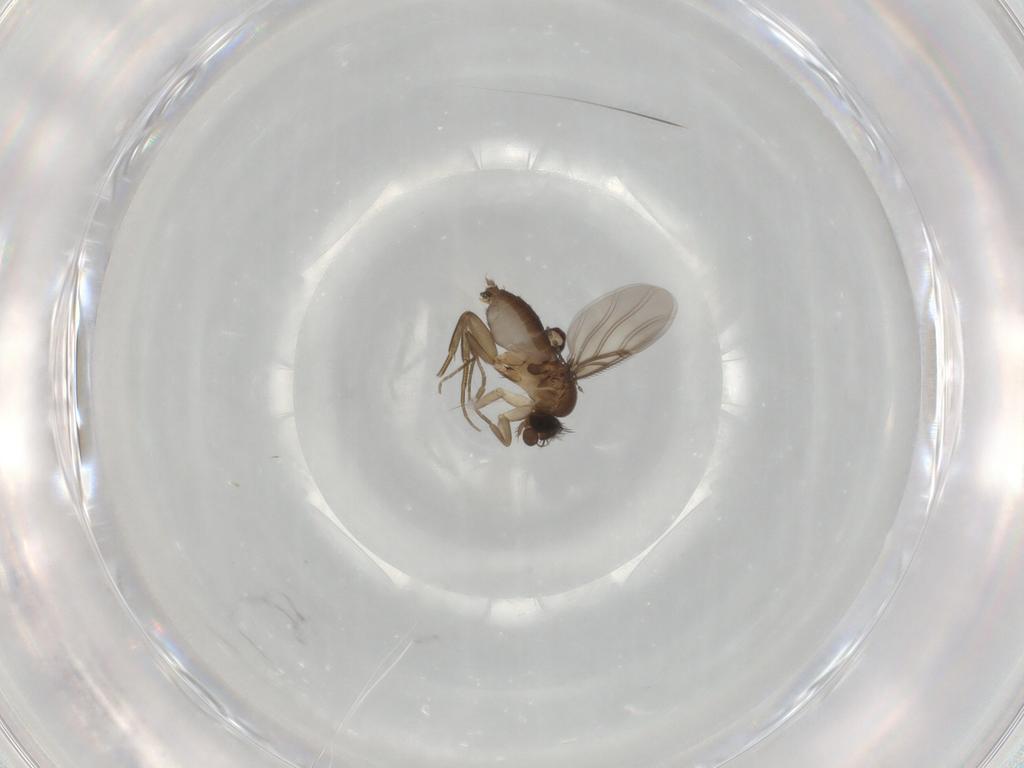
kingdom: Animalia
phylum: Arthropoda
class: Insecta
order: Diptera
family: Phoridae
